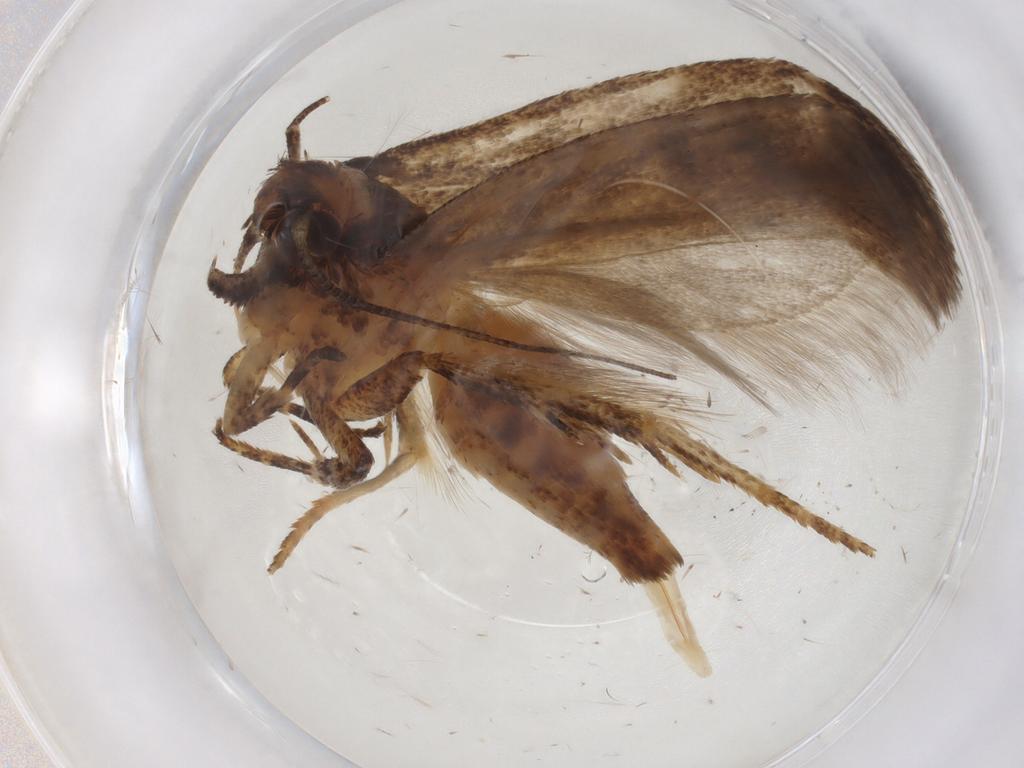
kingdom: Animalia
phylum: Arthropoda
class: Insecta
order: Lepidoptera
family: Gelechiidae
